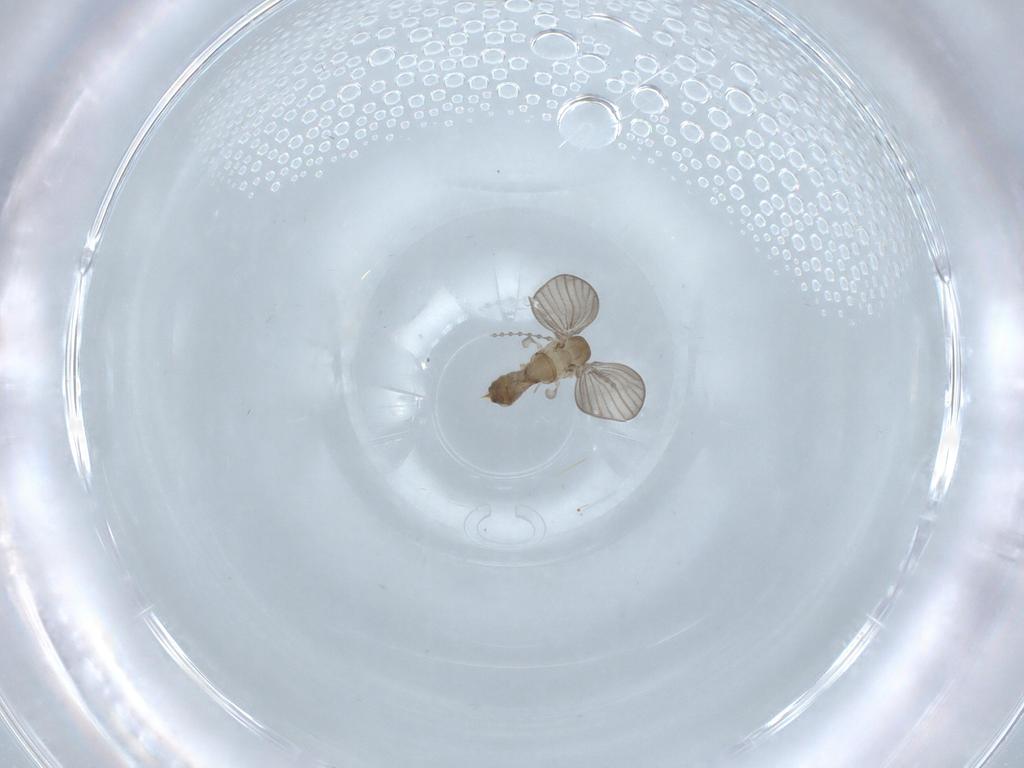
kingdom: Animalia
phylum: Arthropoda
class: Insecta
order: Diptera
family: Psychodidae
